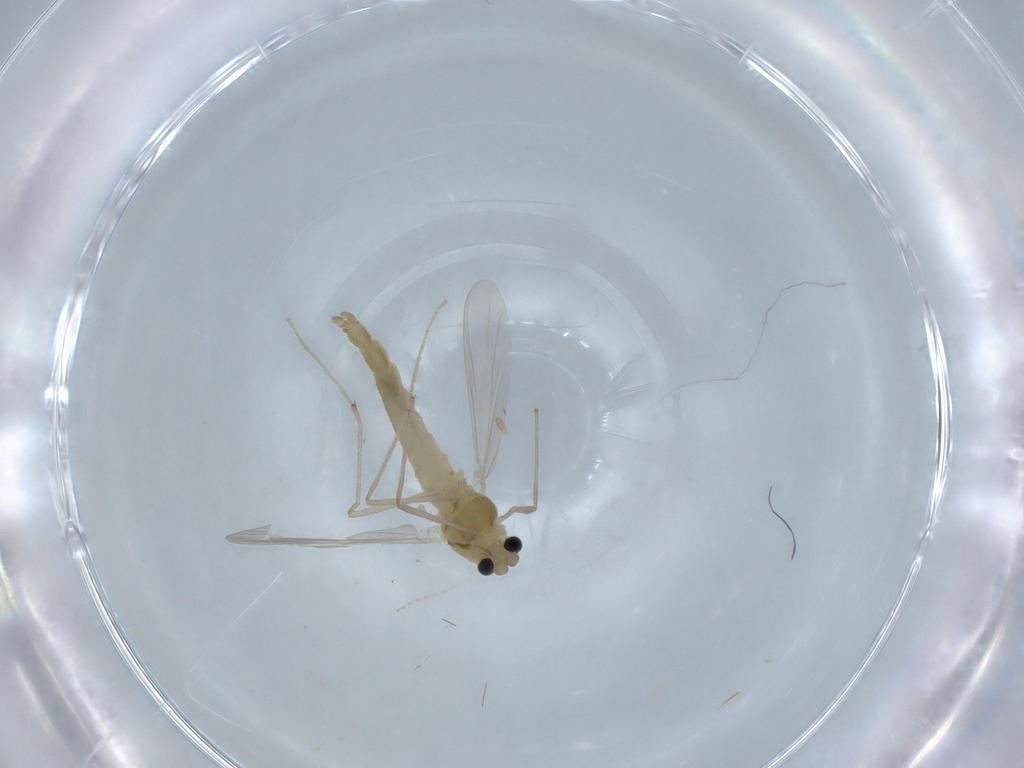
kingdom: Animalia
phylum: Arthropoda
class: Insecta
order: Diptera
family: Chironomidae
